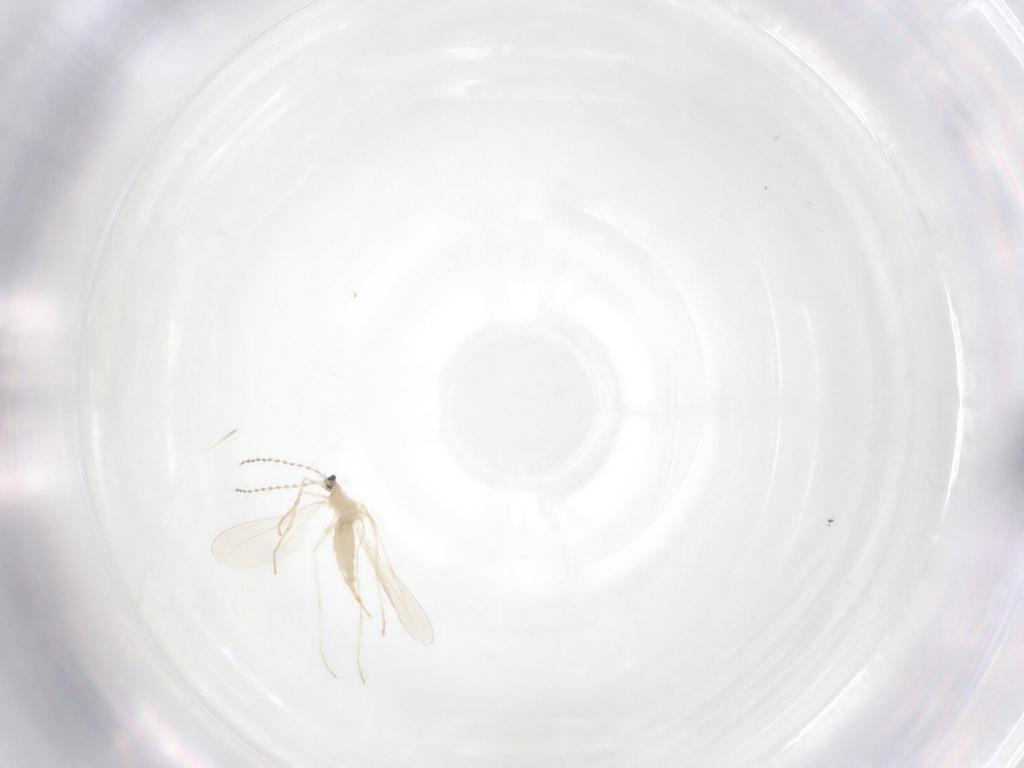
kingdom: Animalia
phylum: Arthropoda
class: Insecta
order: Diptera
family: Cecidomyiidae
